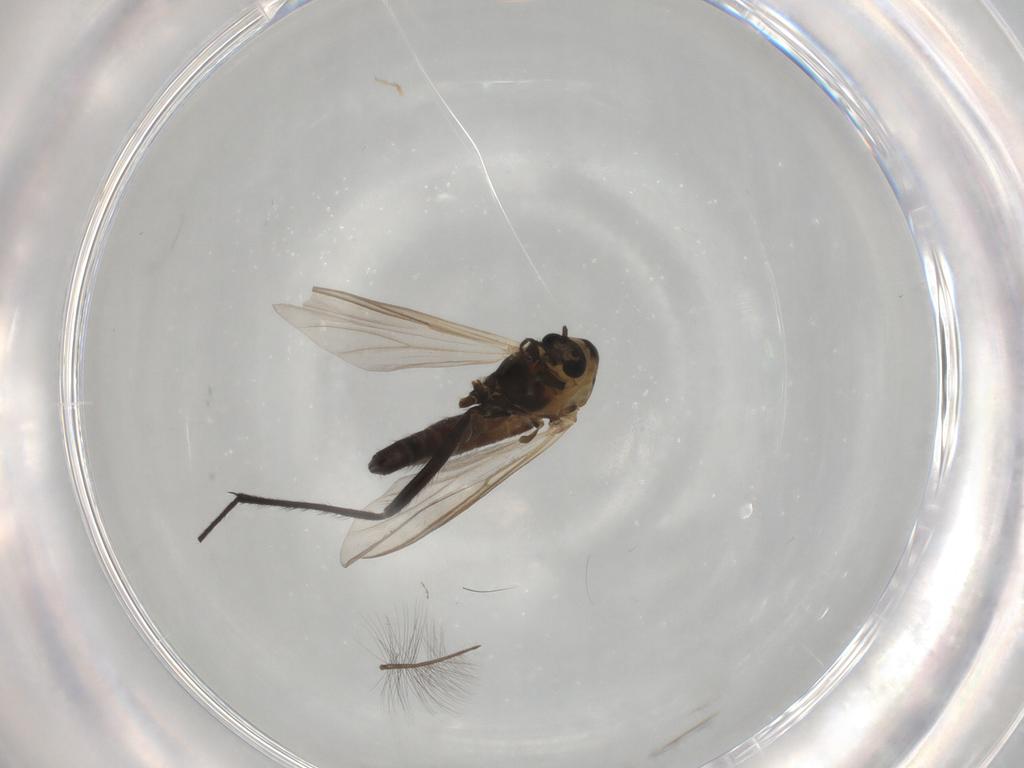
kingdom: Animalia
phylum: Arthropoda
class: Insecta
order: Diptera
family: Chironomidae
